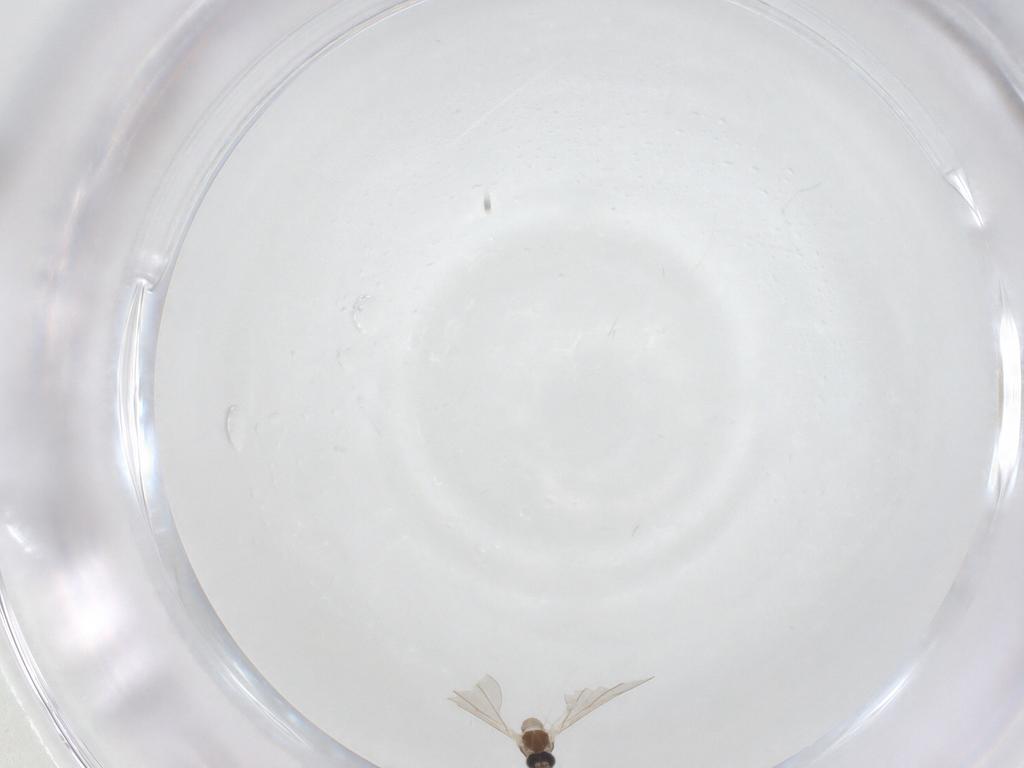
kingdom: Animalia
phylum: Arthropoda
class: Insecta
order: Diptera
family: Cecidomyiidae
